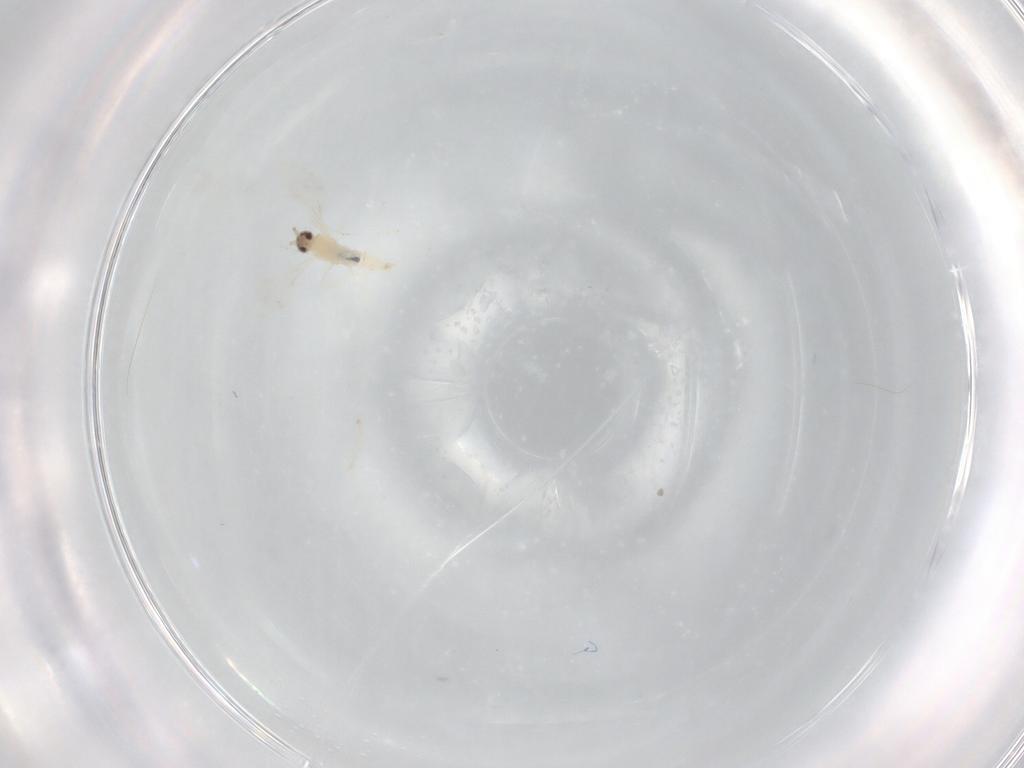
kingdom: Animalia
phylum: Arthropoda
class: Insecta
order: Diptera
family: Cecidomyiidae
